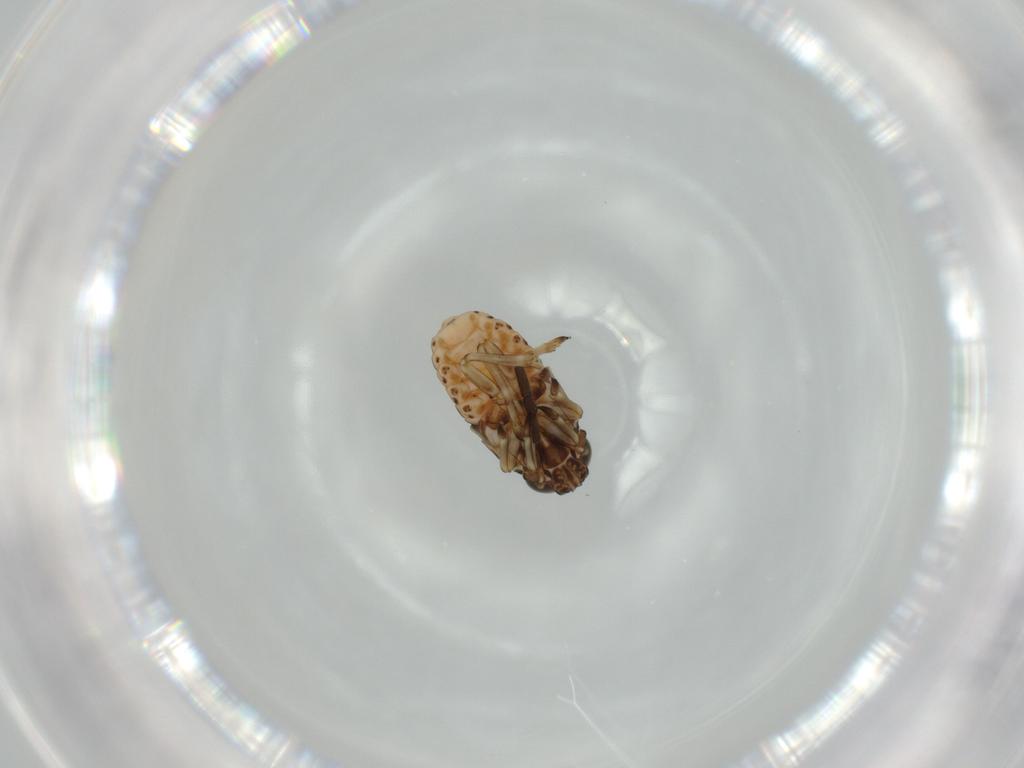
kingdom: Animalia
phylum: Arthropoda
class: Insecta
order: Hemiptera
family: Delphacidae
